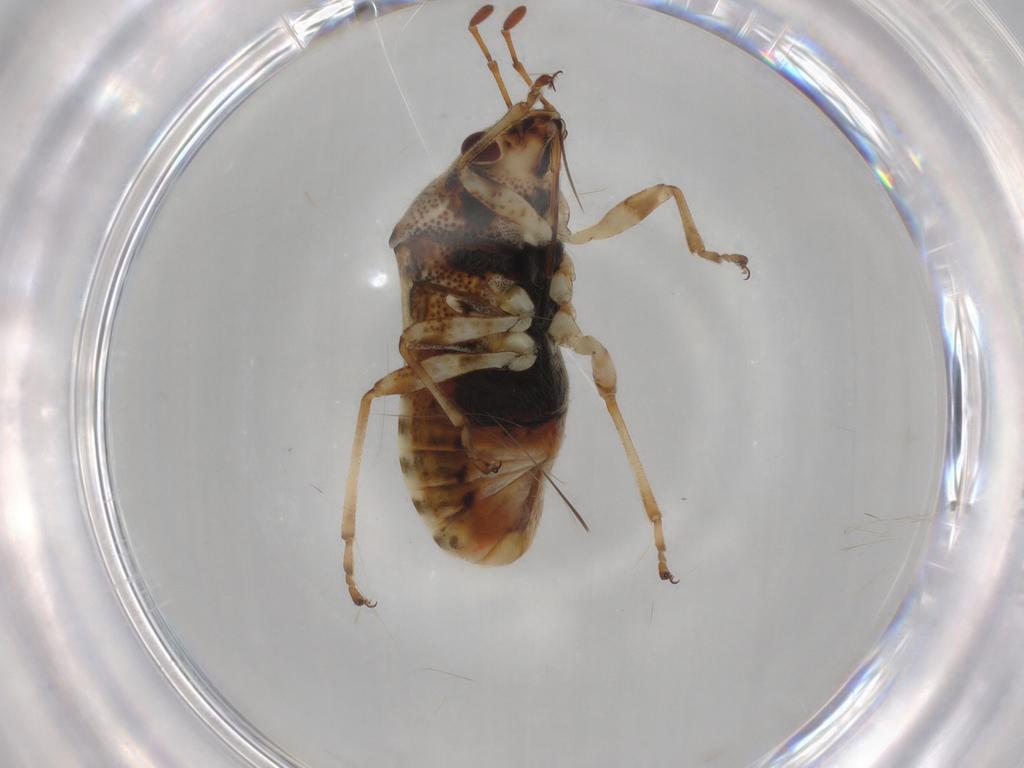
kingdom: Animalia
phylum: Arthropoda
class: Insecta
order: Hemiptera
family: Lygaeidae
